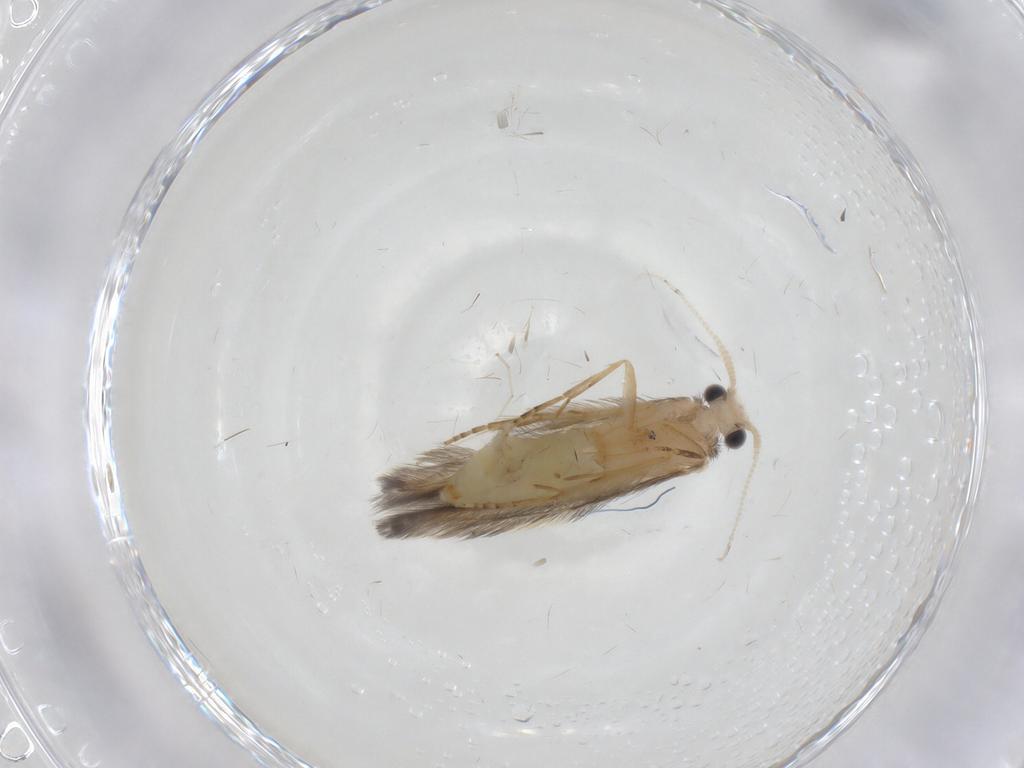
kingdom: Animalia
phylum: Arthropoda
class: Insecta
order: Trichoptera
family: Hydroptilidae
